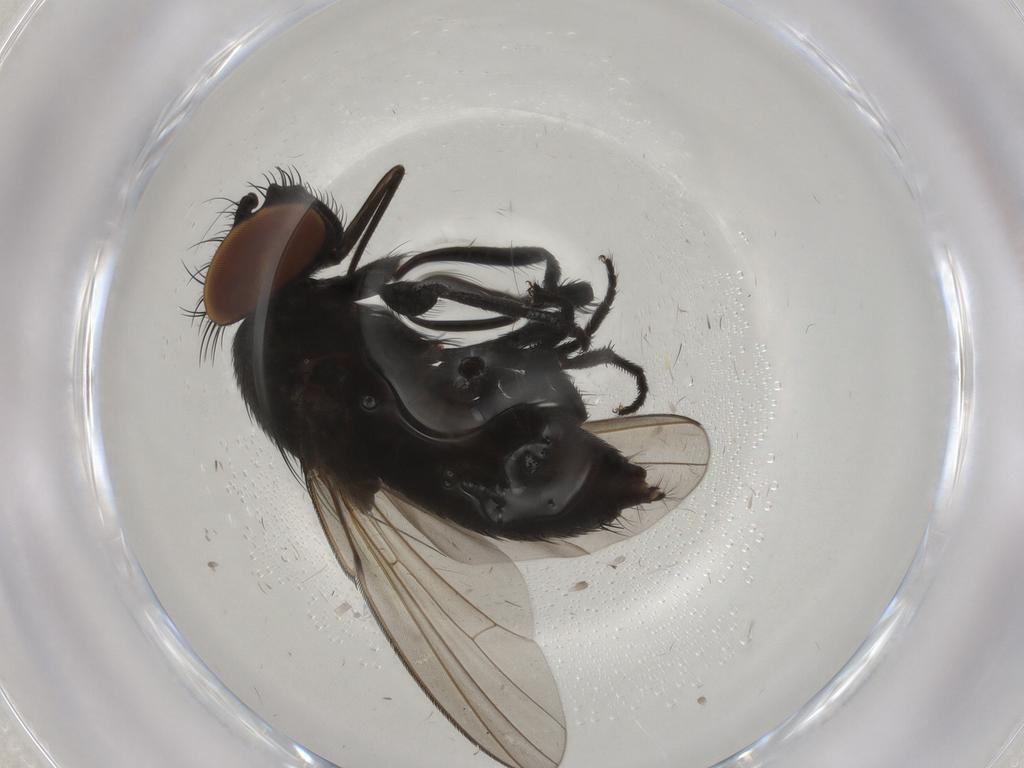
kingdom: Animalia
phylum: Arthropoda
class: Insecta
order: Diptera
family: Milichiidae
